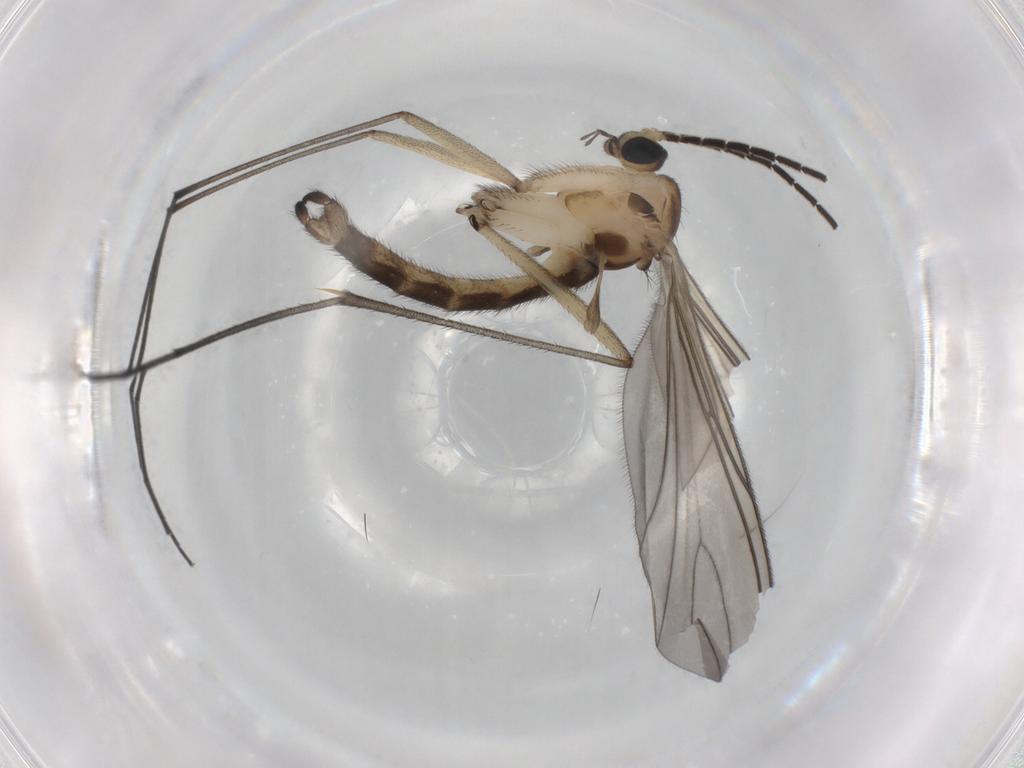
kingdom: Animalia
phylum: Arthropoda
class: Insecta
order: Diptera
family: Sciaridae
